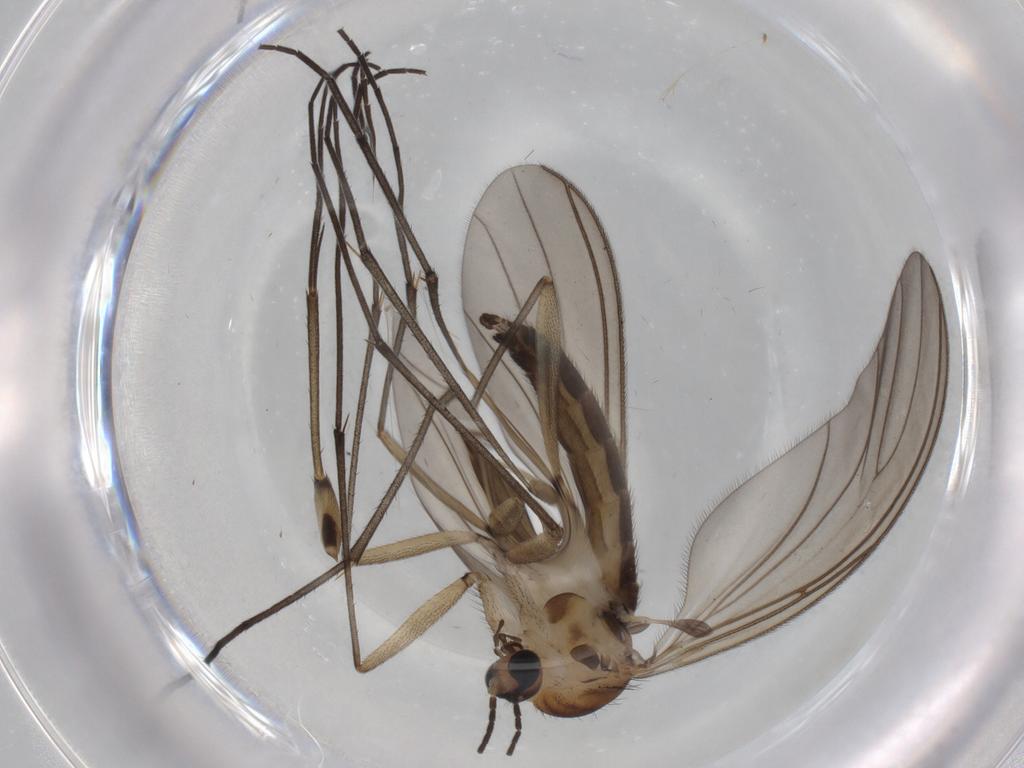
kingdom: Animalia
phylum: Arthropoda
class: Insecta
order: Diptera
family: Sciaridae
